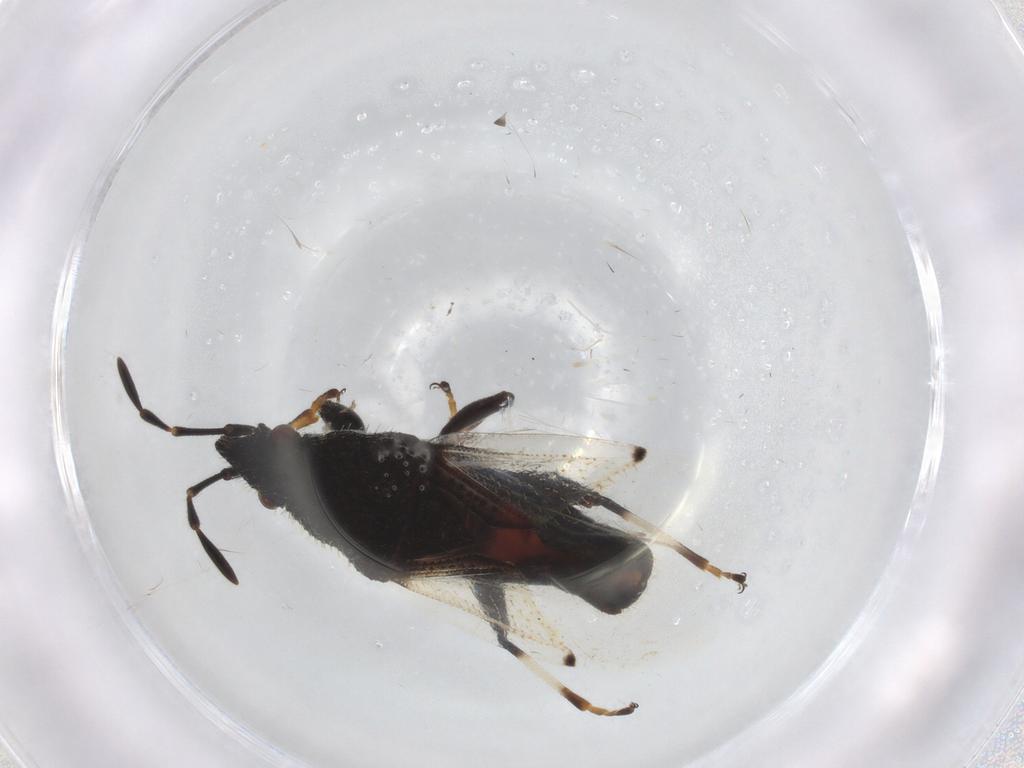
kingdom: Animalia
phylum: Arthropoda
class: Insecta
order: Hemiptera
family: Oxycarenidae
